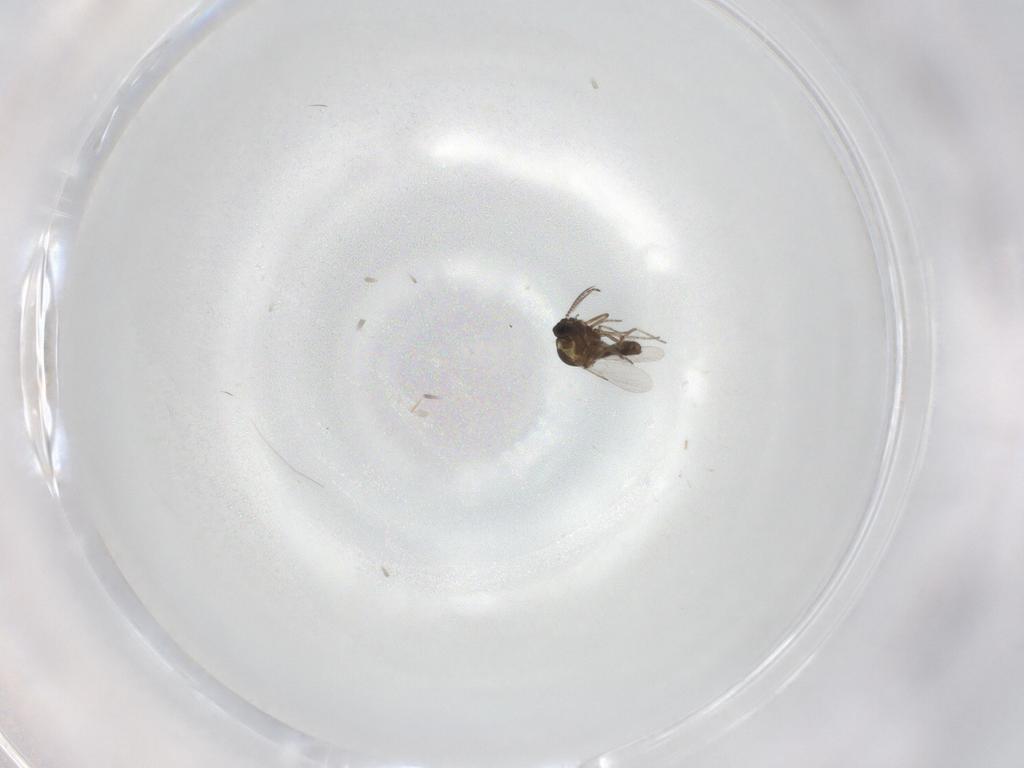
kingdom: Animalia
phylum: Arthropoda
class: Insecta
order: Diptera
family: Ceratopogonidae
